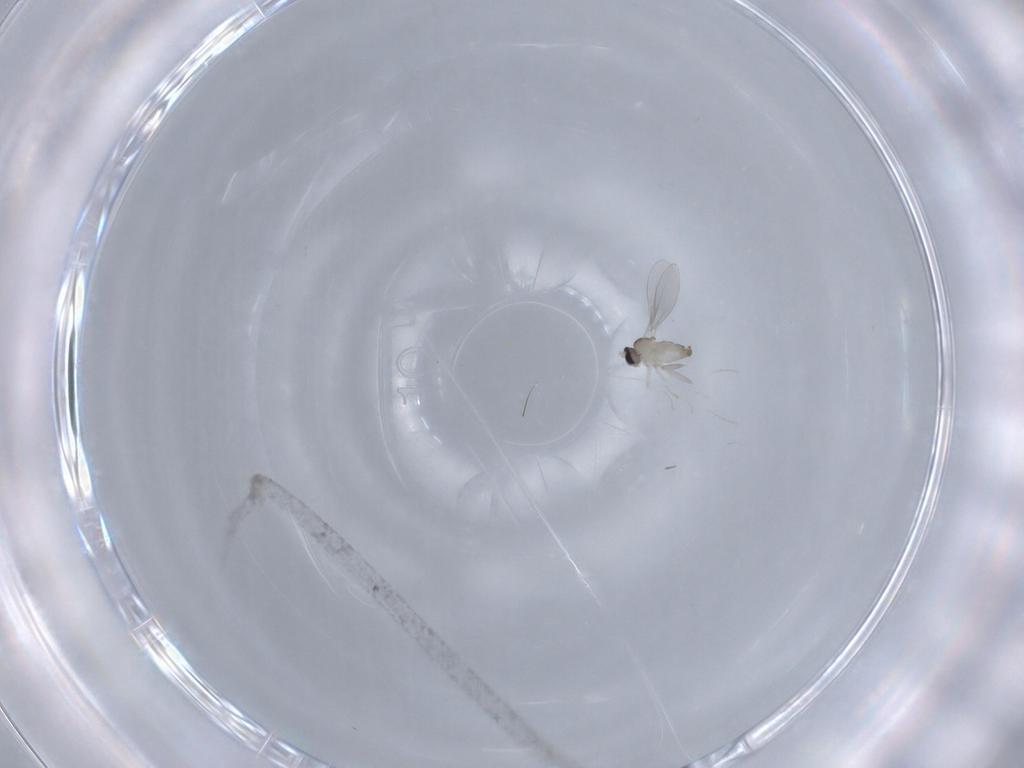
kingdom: Animalia
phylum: Arthropoda
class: Insecta
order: Diptera
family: Cecidomyiidae
